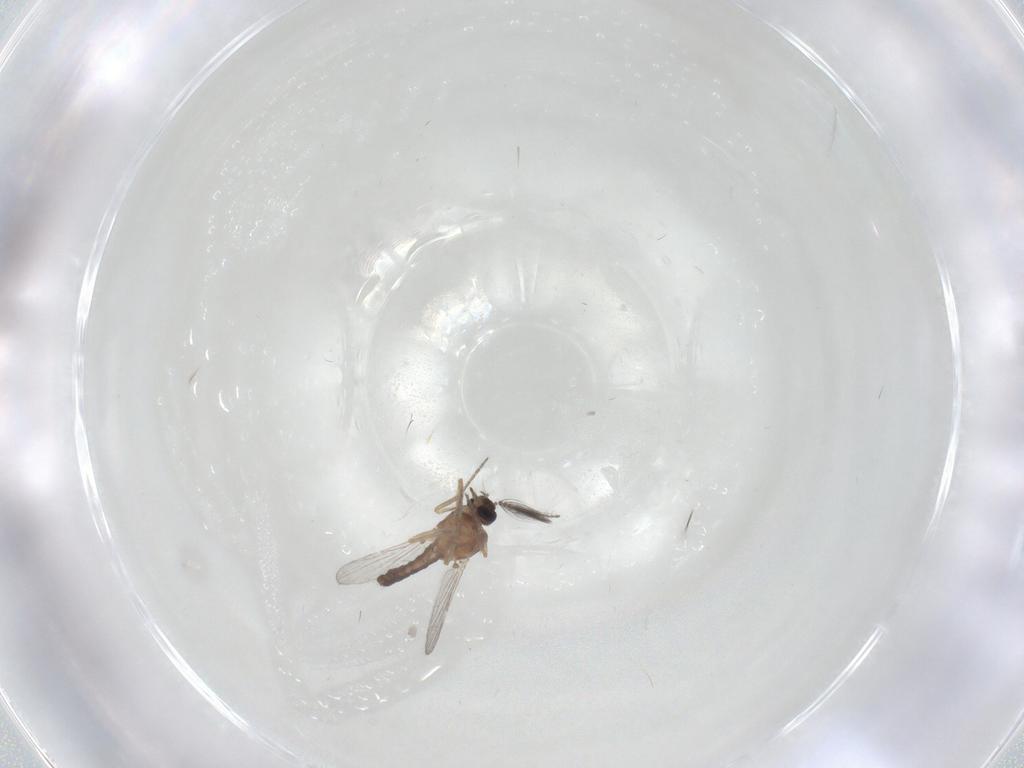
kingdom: Animalia
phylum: Arthropoda
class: Insecta
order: Diptera
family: Ceratopogonidae
